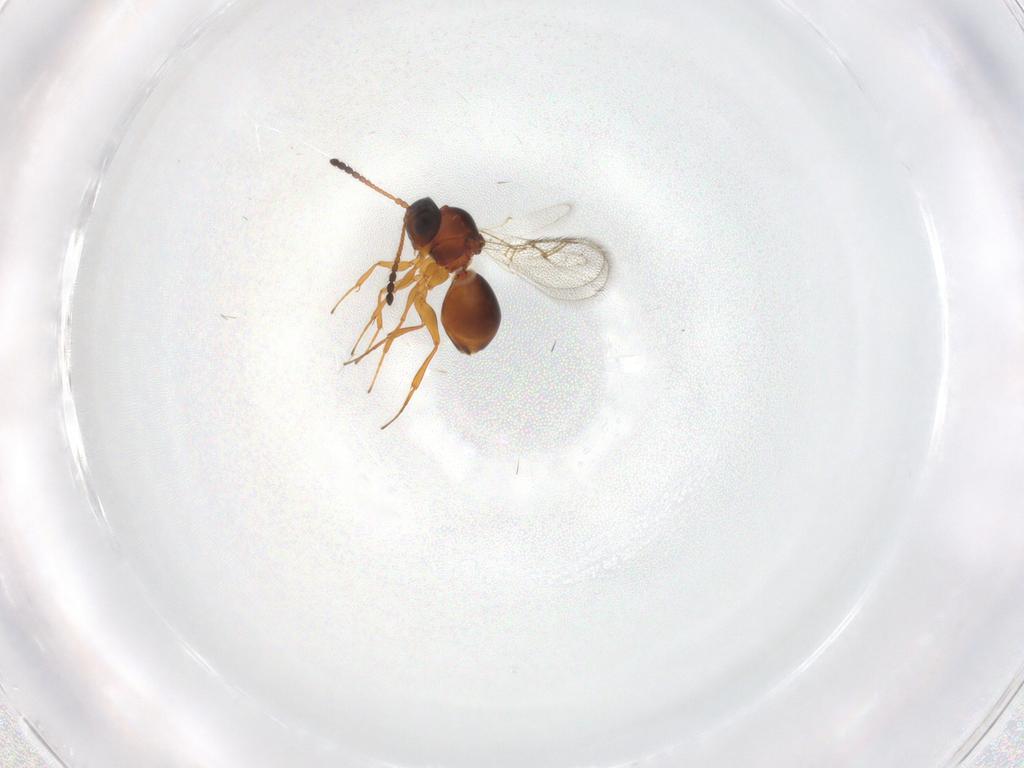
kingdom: Animalia
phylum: Arthropoda
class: Insecta
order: Hymenoptera
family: Figitidae
